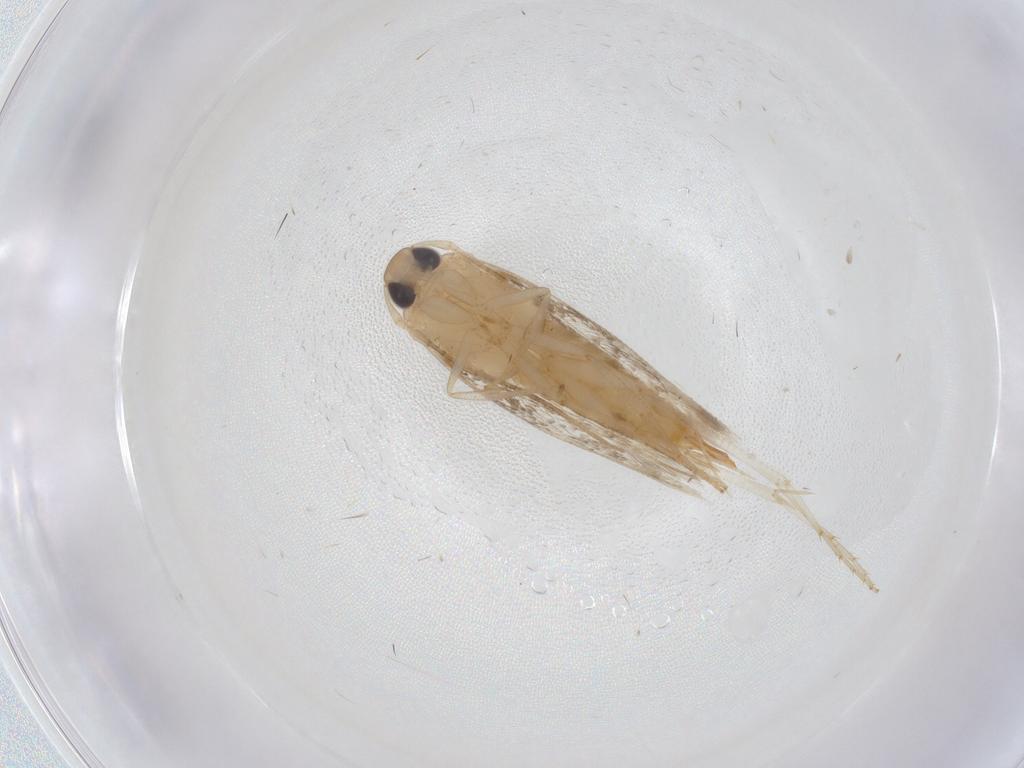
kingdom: Animalia
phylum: Arthropoda
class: Insecta
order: Lepidoptera
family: Cosmopterigidae
